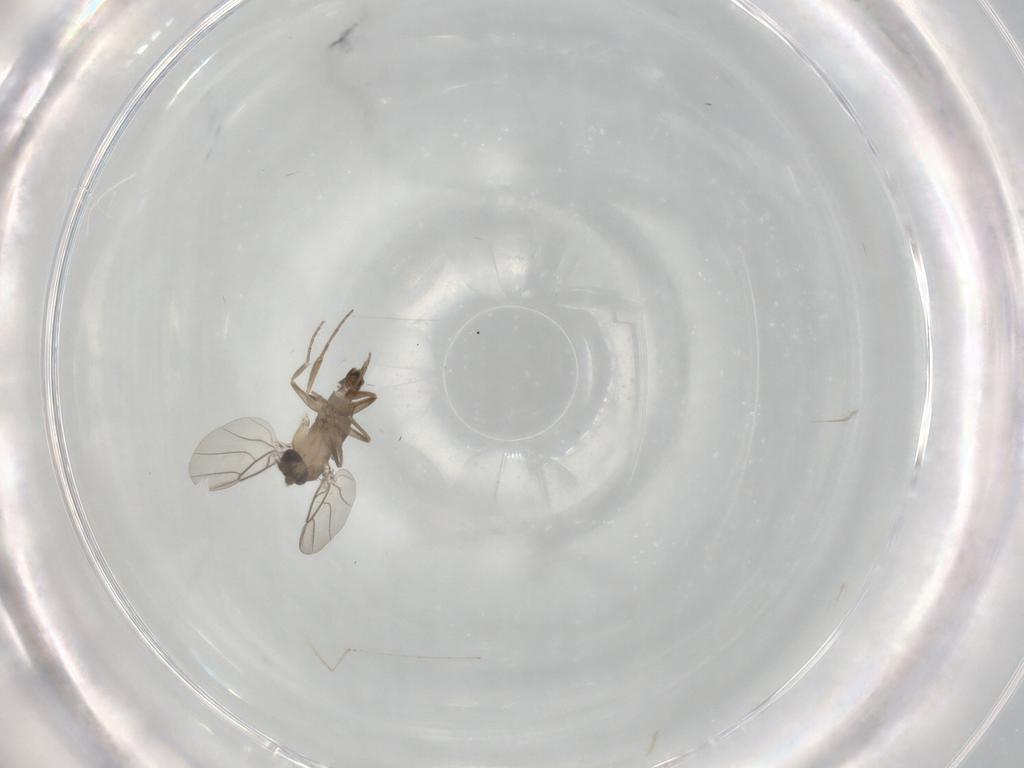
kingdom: Animalia
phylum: Arthropoda
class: Insecta
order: Diptera
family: Phoridae
